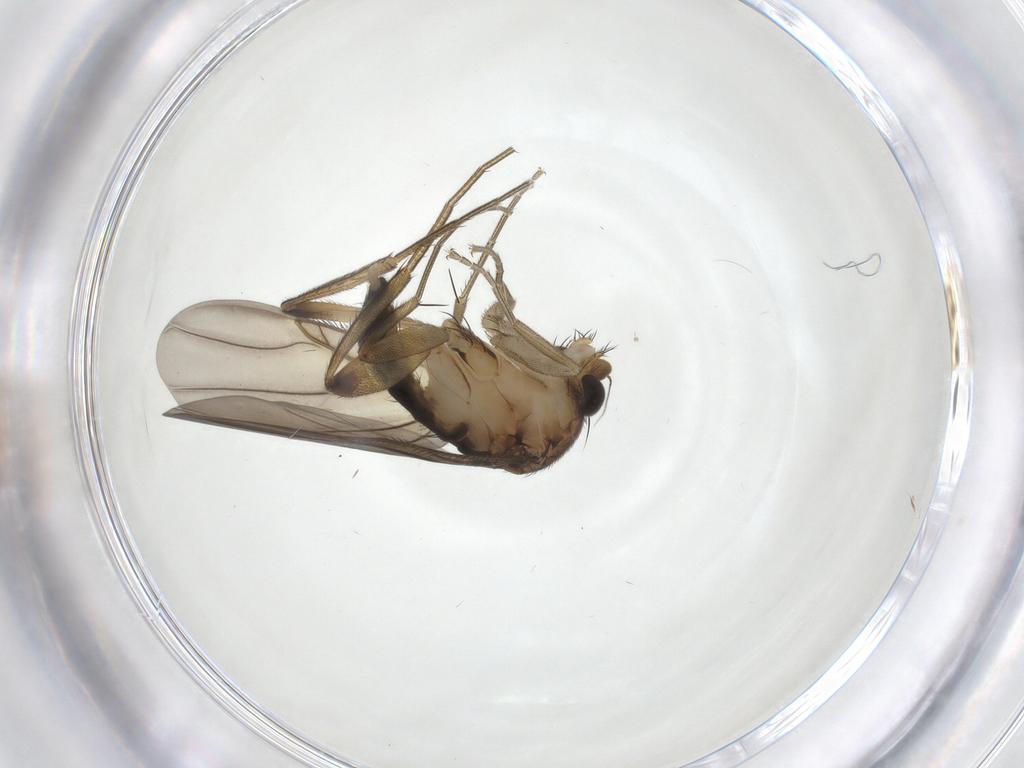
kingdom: Animalia
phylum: Arthropoda
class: Insecta
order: Diptera
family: Phoridae
